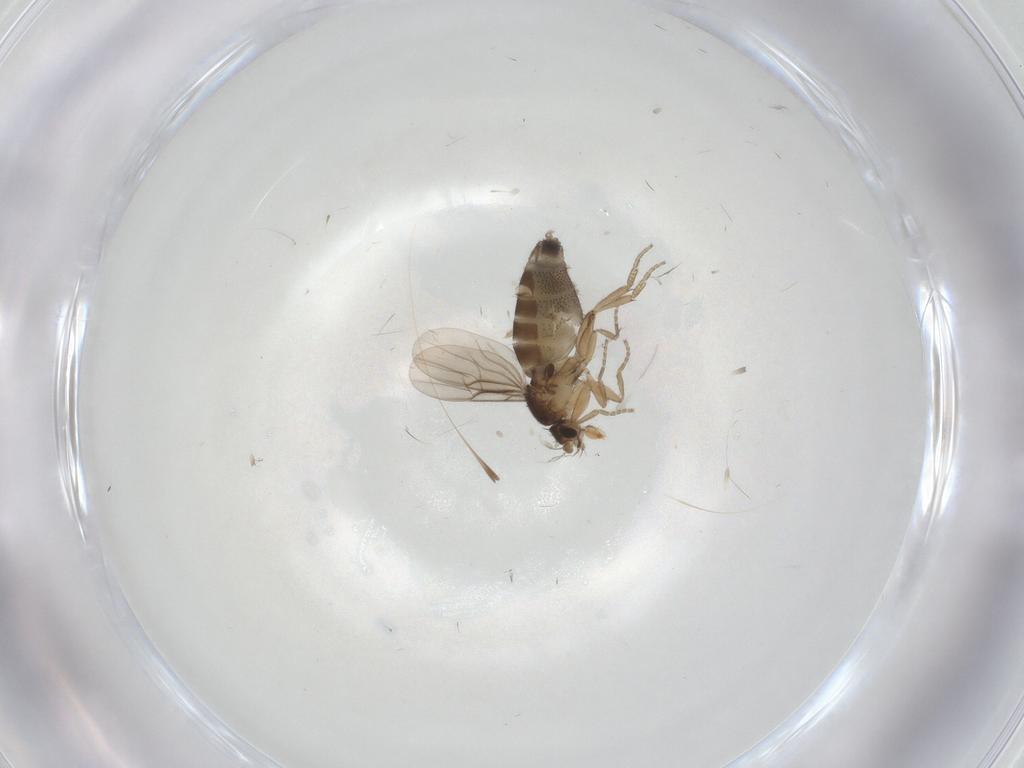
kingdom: Animalia
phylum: Arthropoda
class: Insecta
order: Diptera
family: Phoridae
